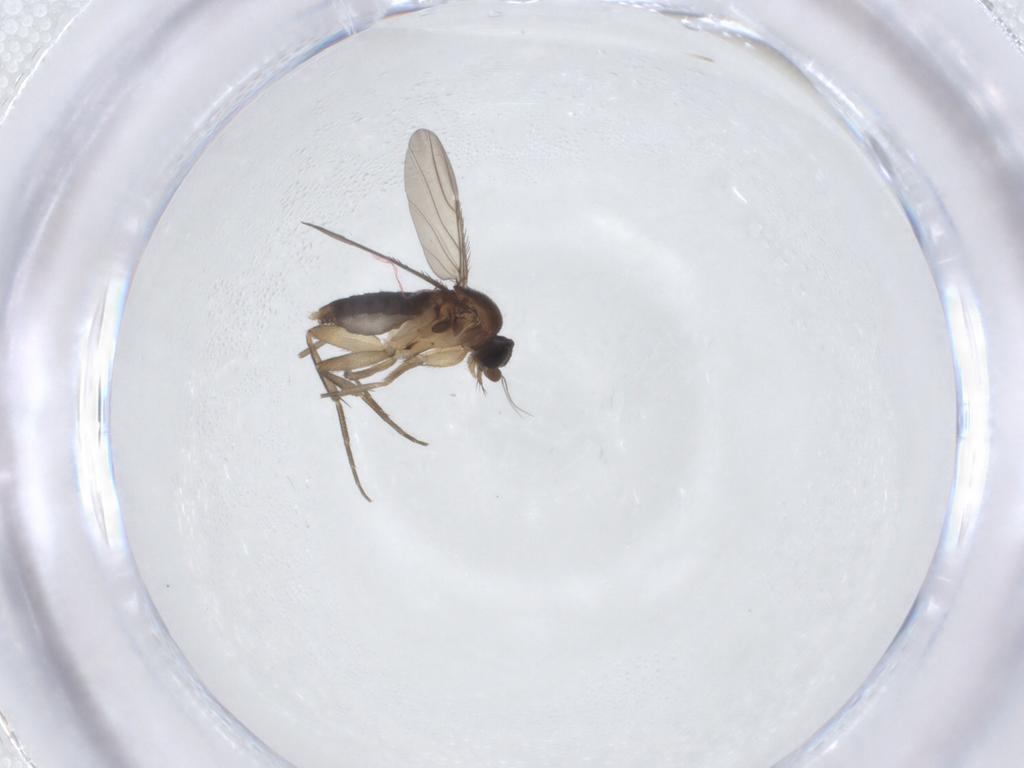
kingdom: Animalia
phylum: Arthropoda
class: Insecta
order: Diptera
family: Phoridae
